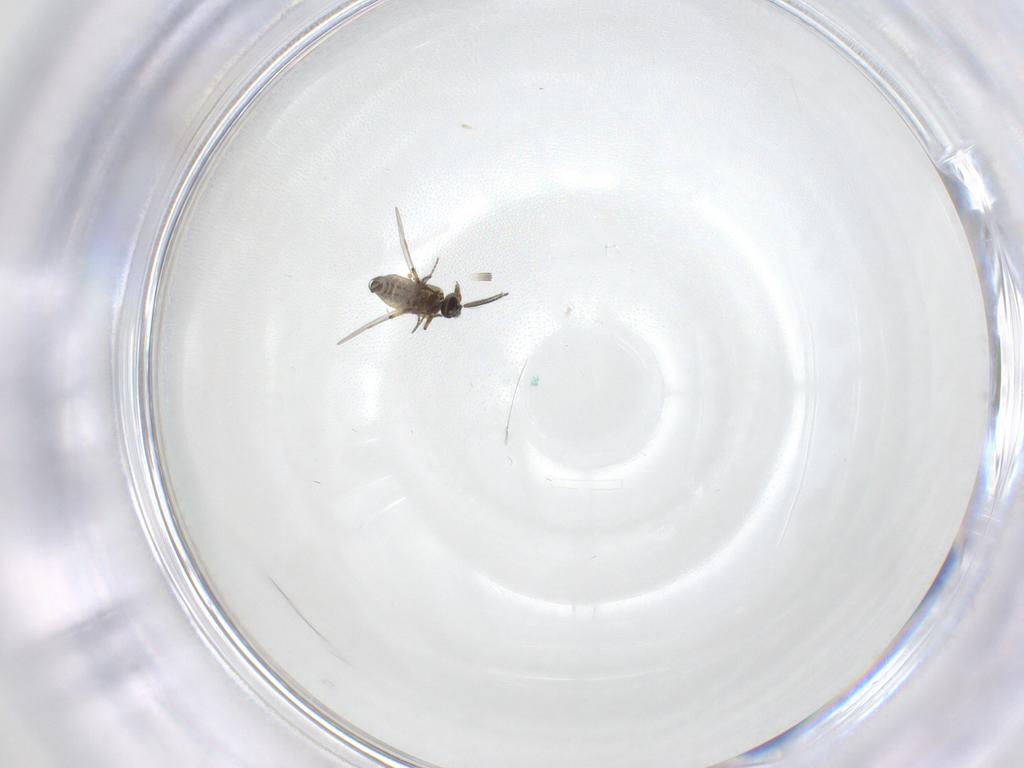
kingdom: Animalia
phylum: Arthropoda
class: Insecta
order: Diptera
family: Ceratopogonidae
